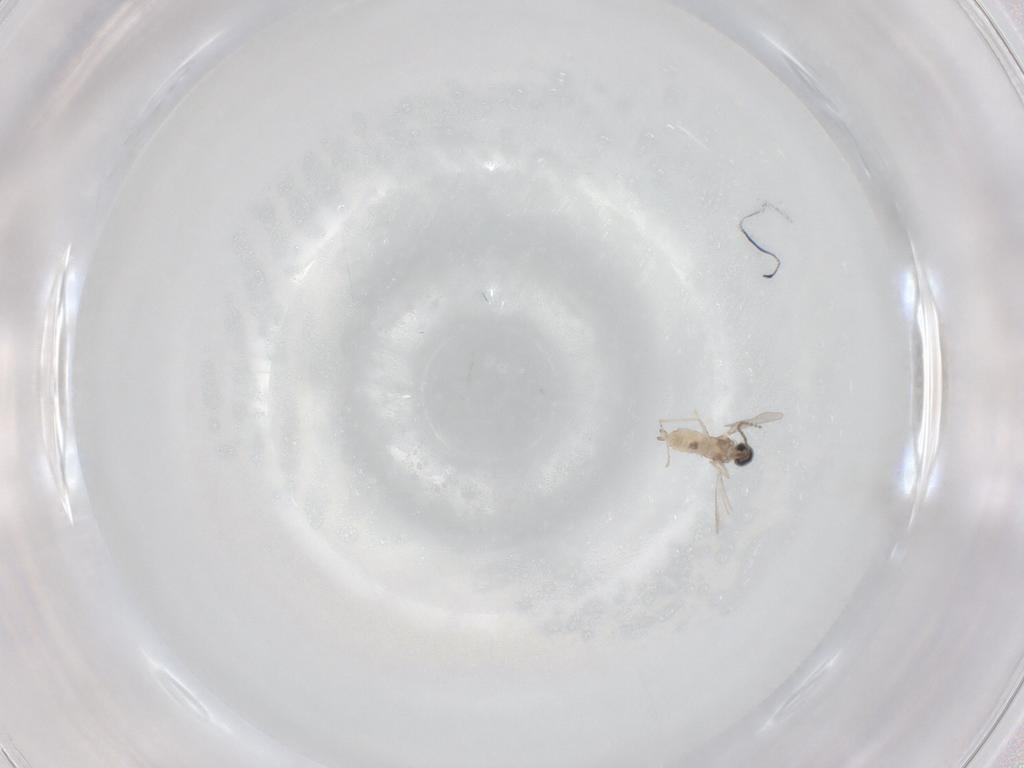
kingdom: Animalia
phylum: Arthropoda
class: Insecta
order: Diptera
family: Cecidomyiidae
